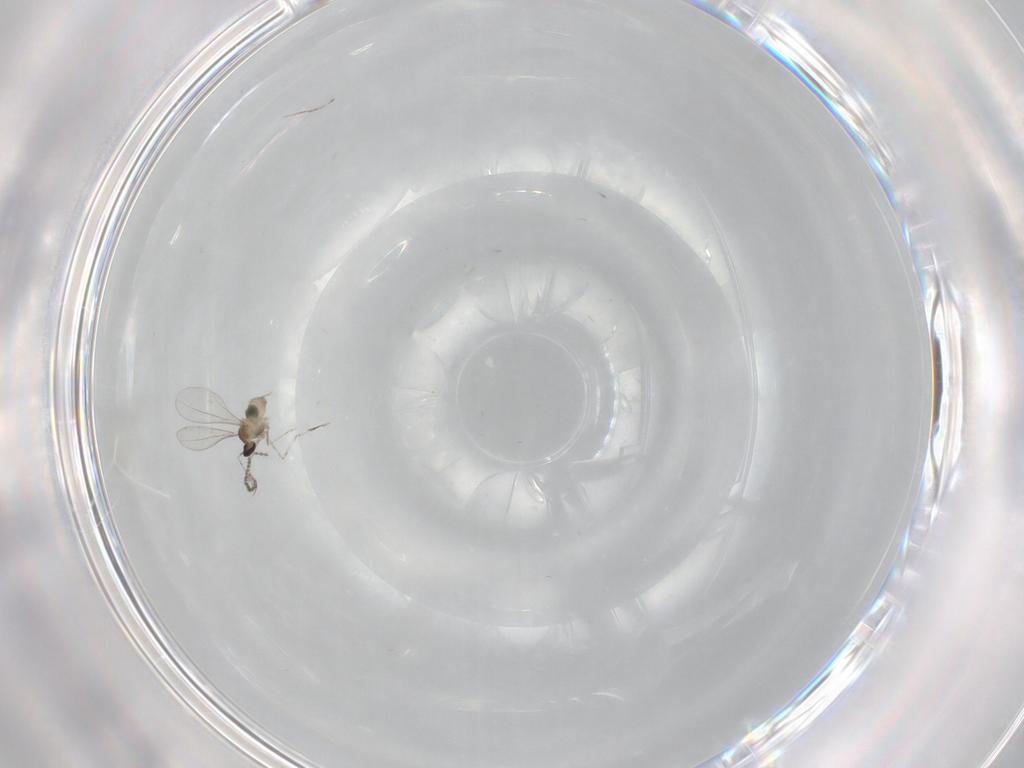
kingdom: Animalia
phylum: Arthropoda
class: Insecta
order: Diptera
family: Cecidomyiidae
